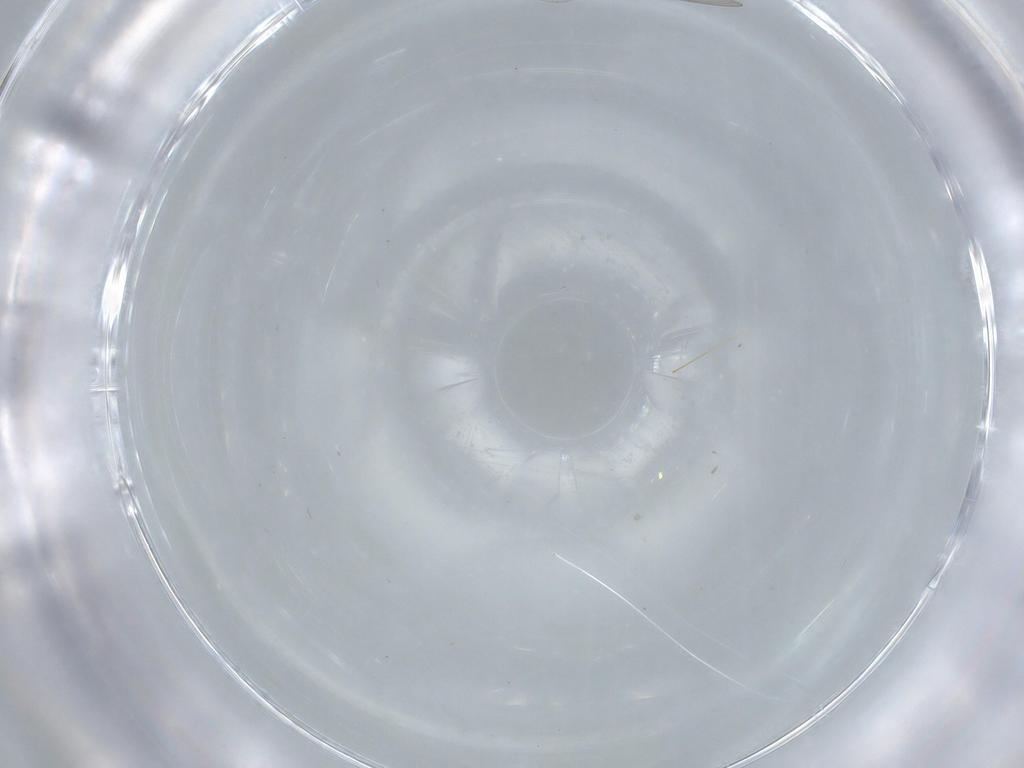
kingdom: Animalia
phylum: Arthropoda
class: Insecta
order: Diptera
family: Cecidomyiidae
